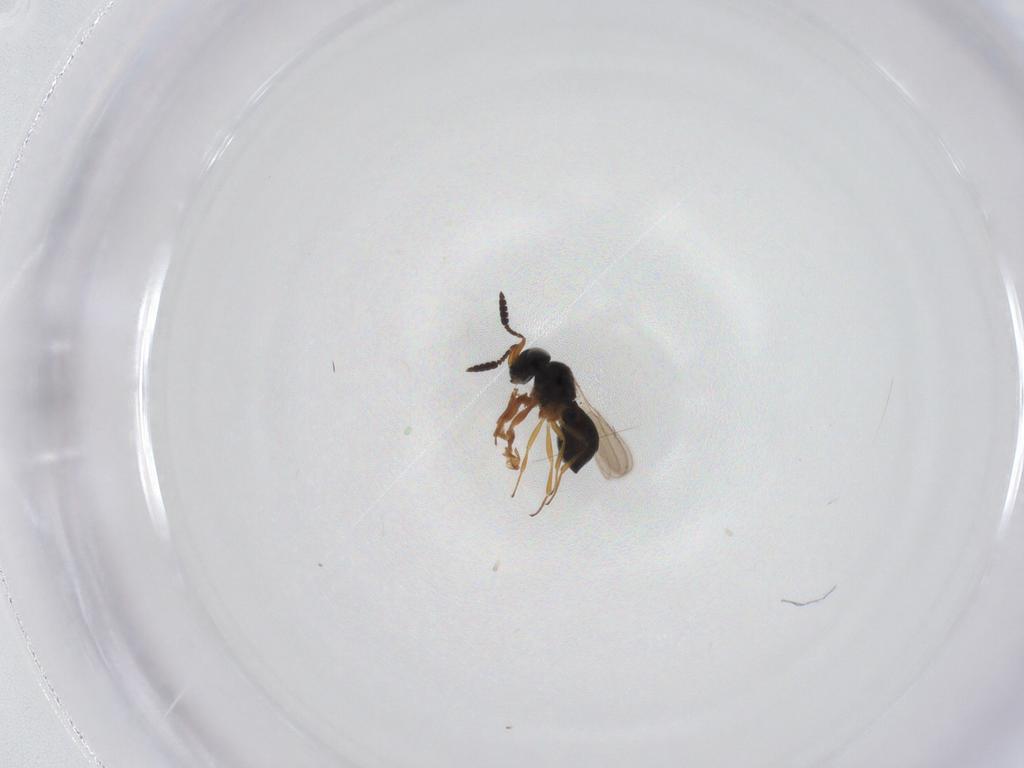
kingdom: Animalia
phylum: Arthropoda
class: Insecta
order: Hymenoptera
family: Scelionidae
